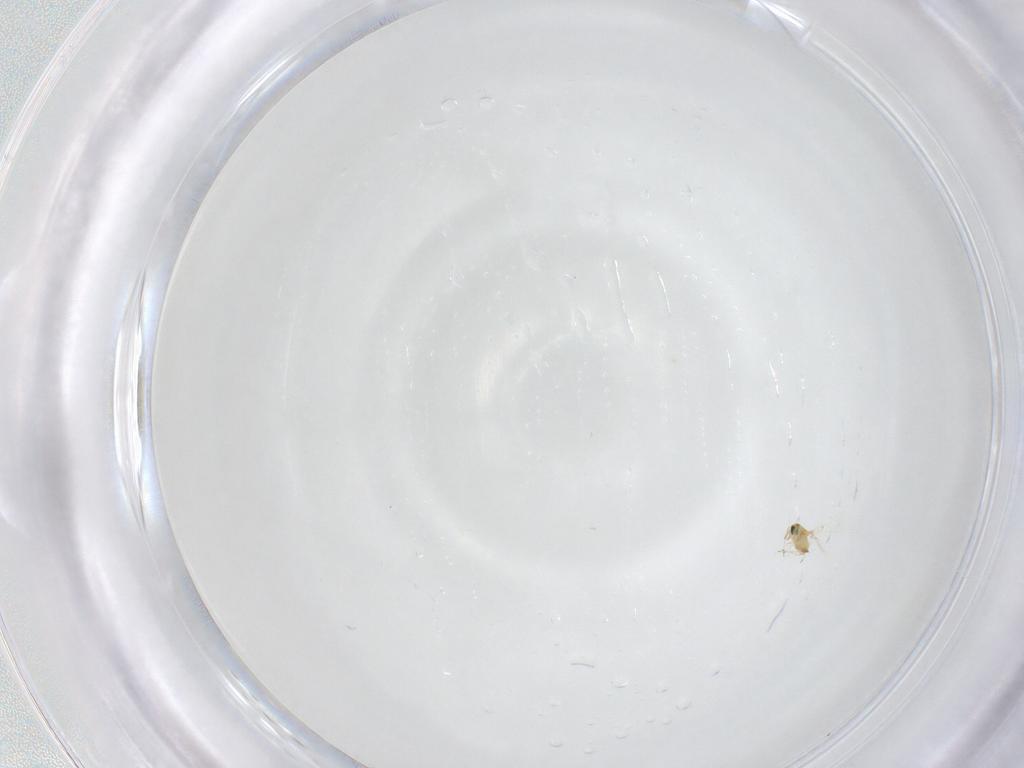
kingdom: Animalia
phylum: Arthropoda
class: Insecta
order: Hymenoptera
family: Trichogrammatidae
